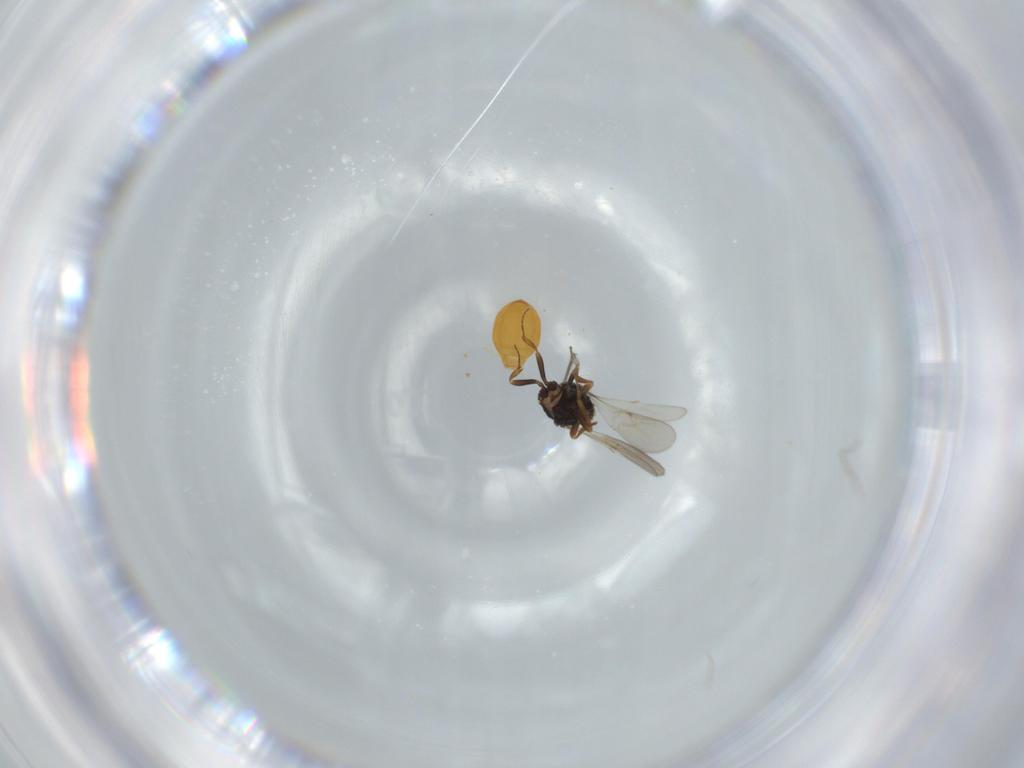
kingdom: Animalia
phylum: Arthropoda
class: Insecta
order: Hymenoptera
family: Scelionidae
